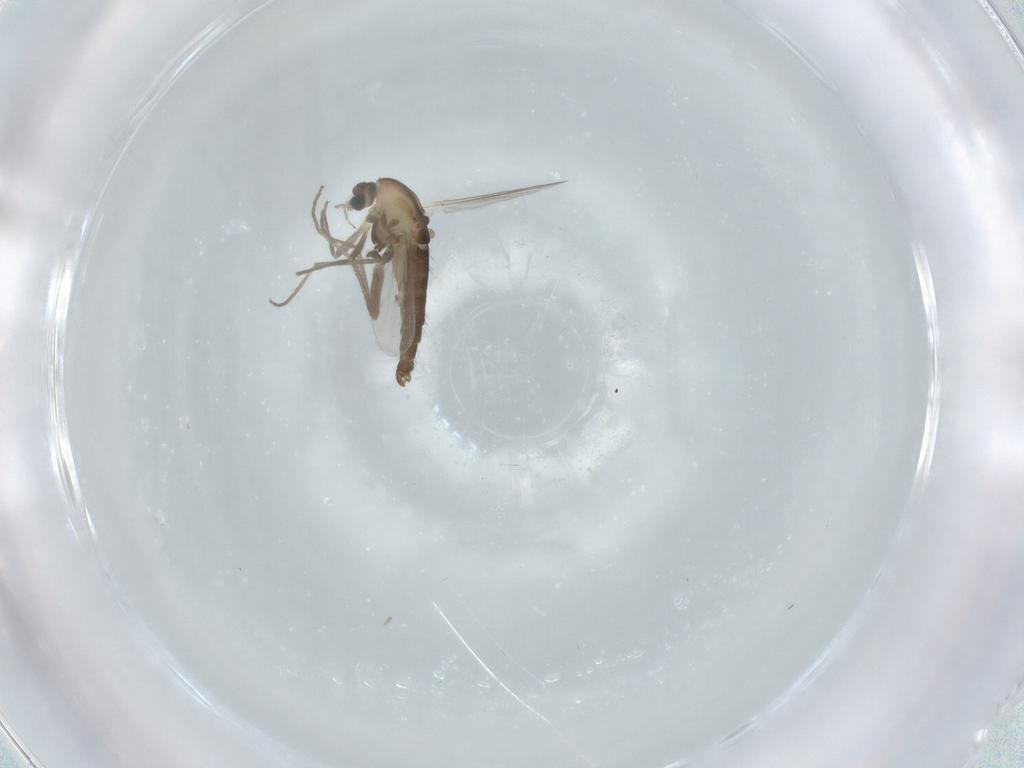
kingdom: Animalia
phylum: Arthropoda
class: Insecta
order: Diptera
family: Chironomidae
